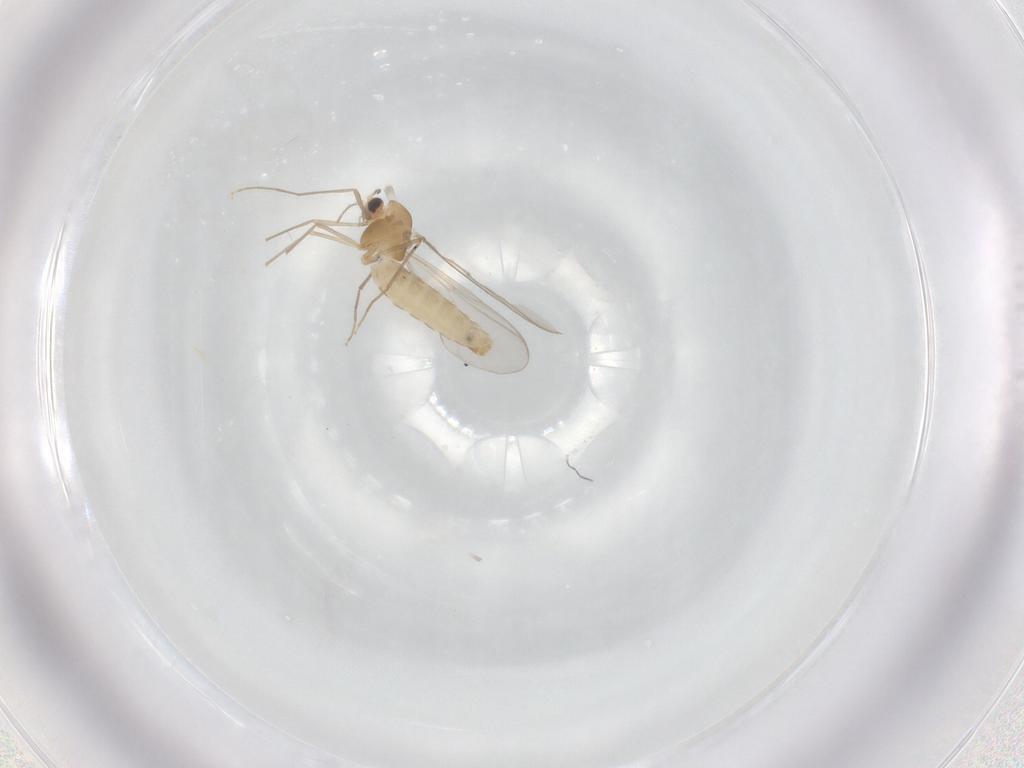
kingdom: Animalia
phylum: Arthropoda
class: Insecta
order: Diptera
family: Chironomidae
